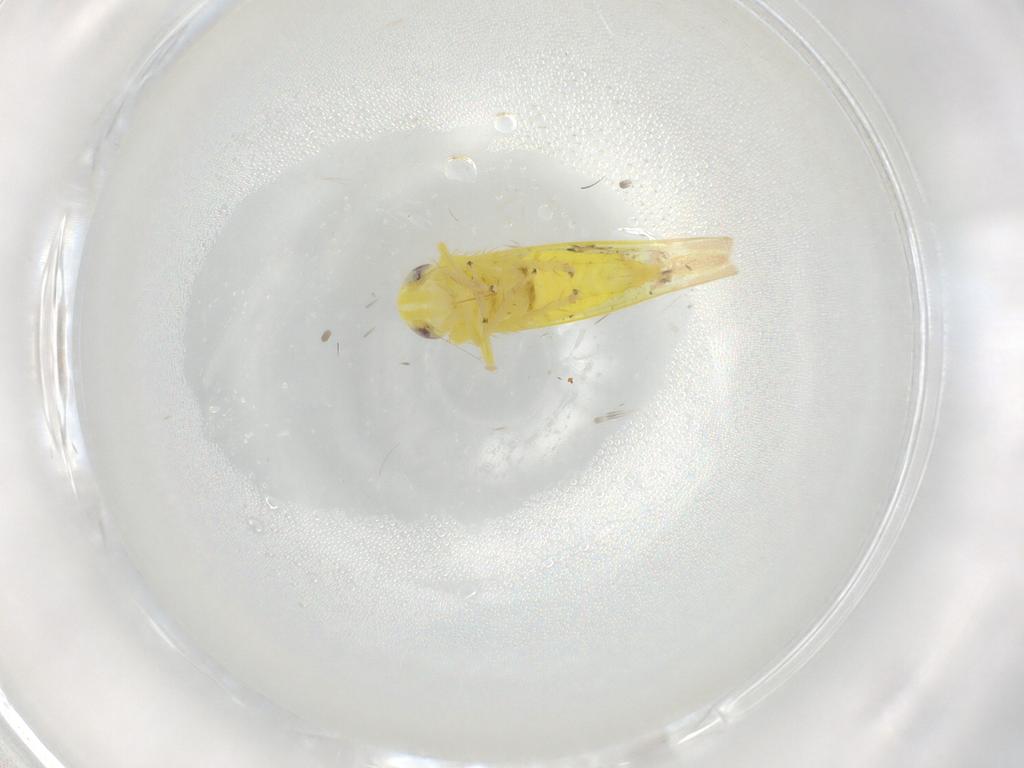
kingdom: Animalia
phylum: Arthropoda
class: Insecta
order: Hemiptera
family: Cicadellidae
